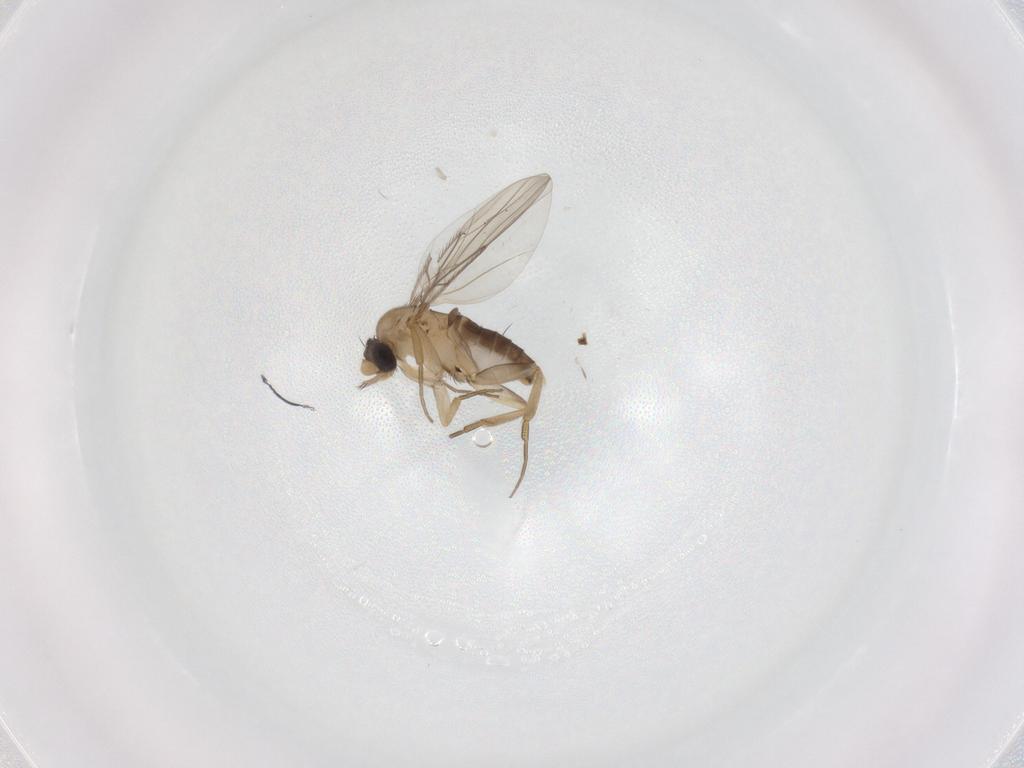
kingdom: Animalia
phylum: Arthropoda
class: Insecta
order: Diptera
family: Phoridae
